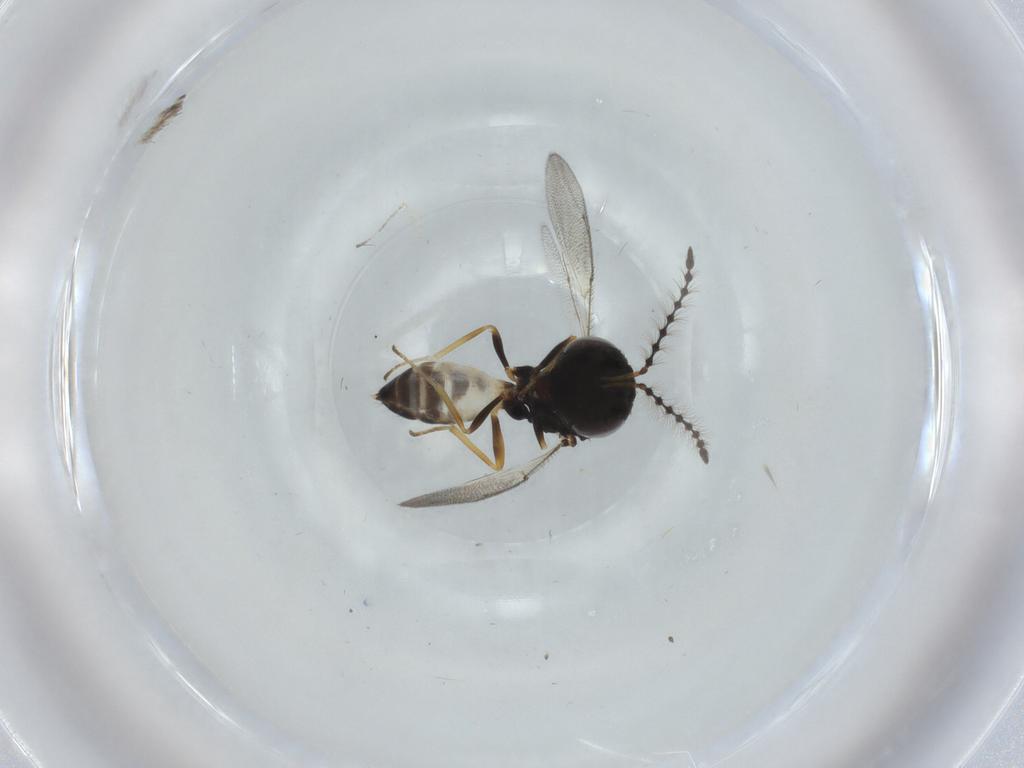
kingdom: Animalia
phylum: Arthropoda
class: Insecta
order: Hymenoptera
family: Pteromalidae
